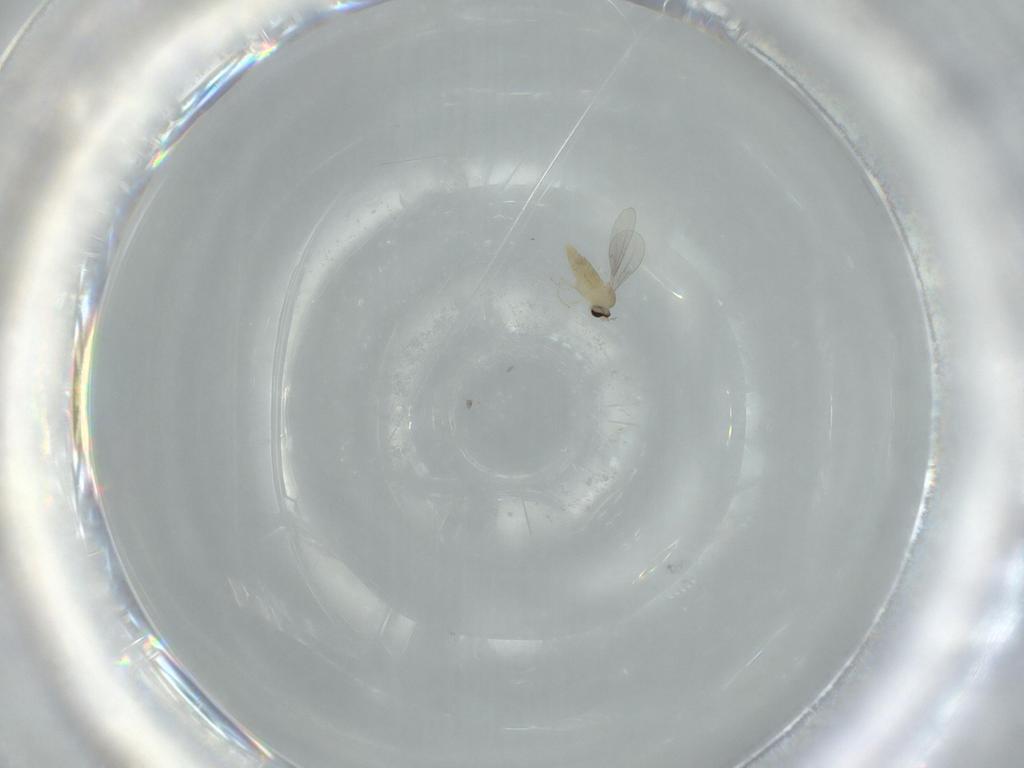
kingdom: Animalia
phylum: Arthropoda
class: Insecta
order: Diptera
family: Cecidomyiidae
